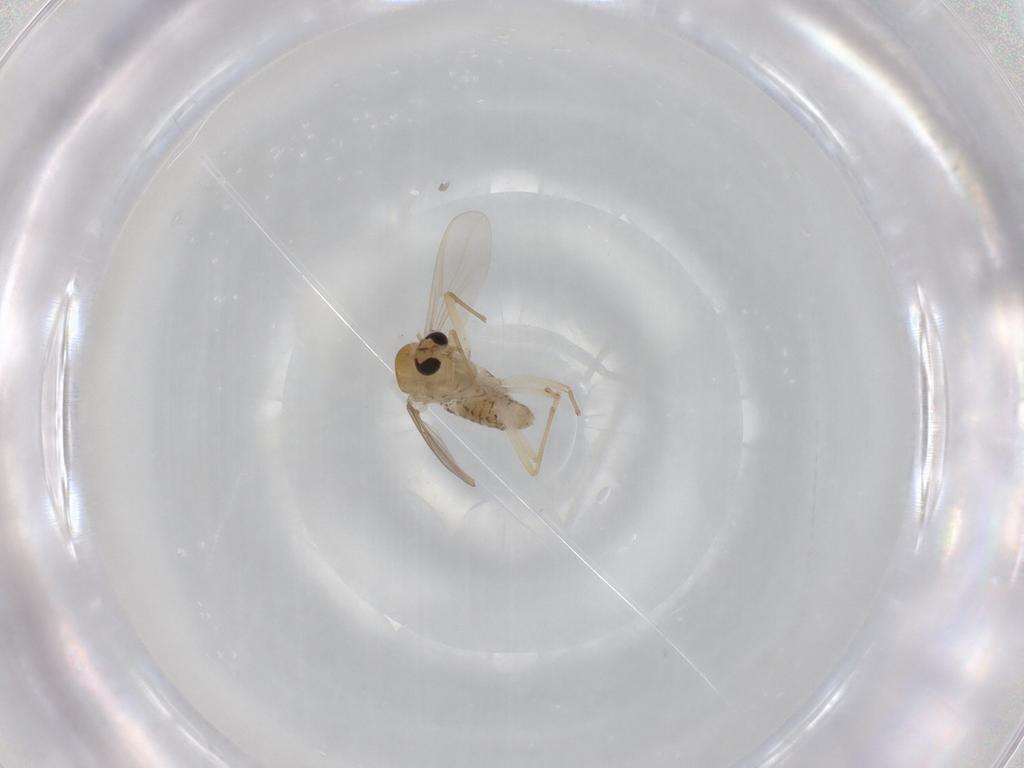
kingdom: Animalia
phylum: Arthropoda
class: Insecta
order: Diptera
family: Chironomidae
